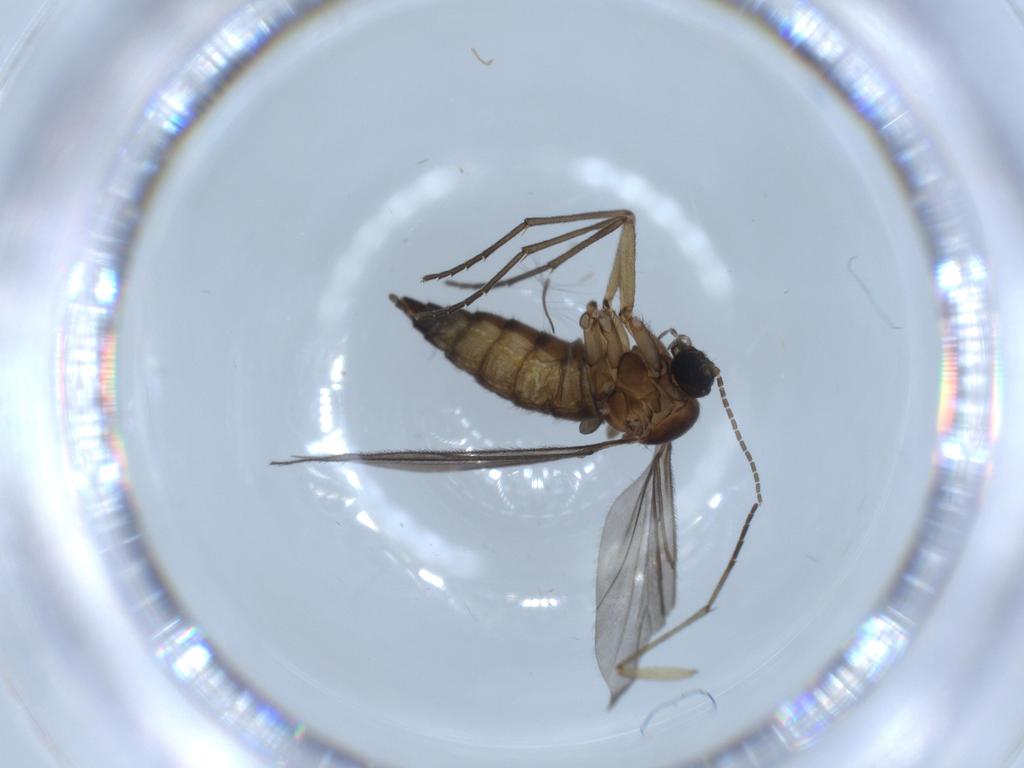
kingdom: Animalia
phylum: Arthropoda
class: Insecta
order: Diptera
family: Sciaridae
